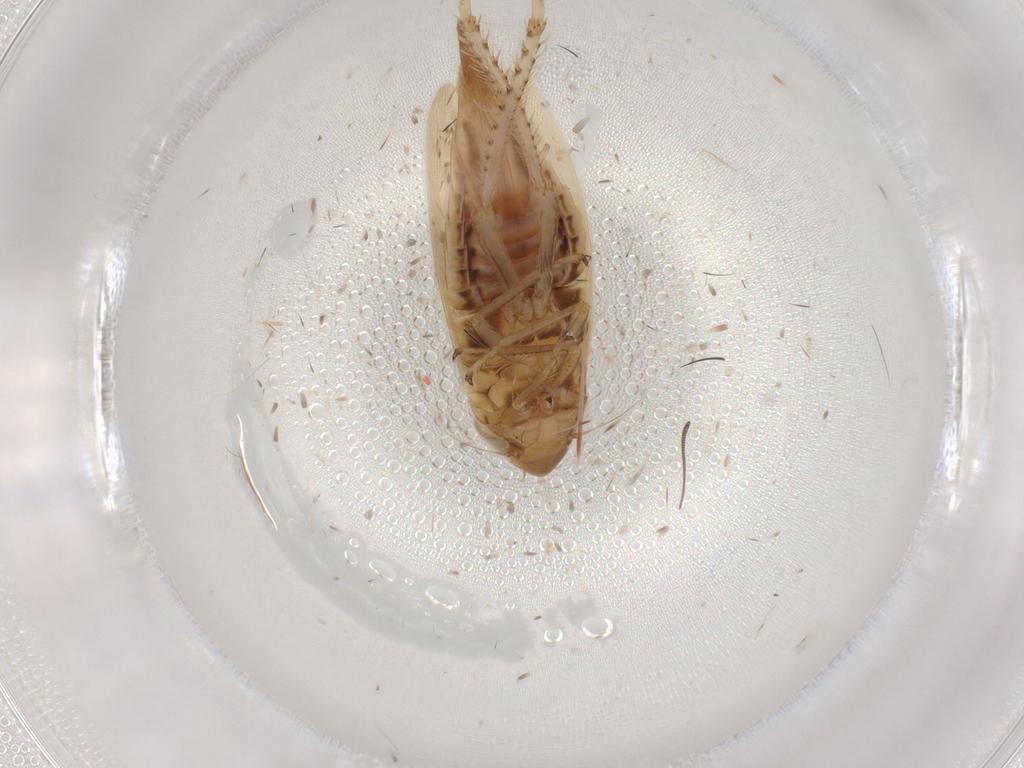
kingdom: Animalia
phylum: Arthropoda
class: Insecta
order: Hemiptera
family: Cicadellidae
